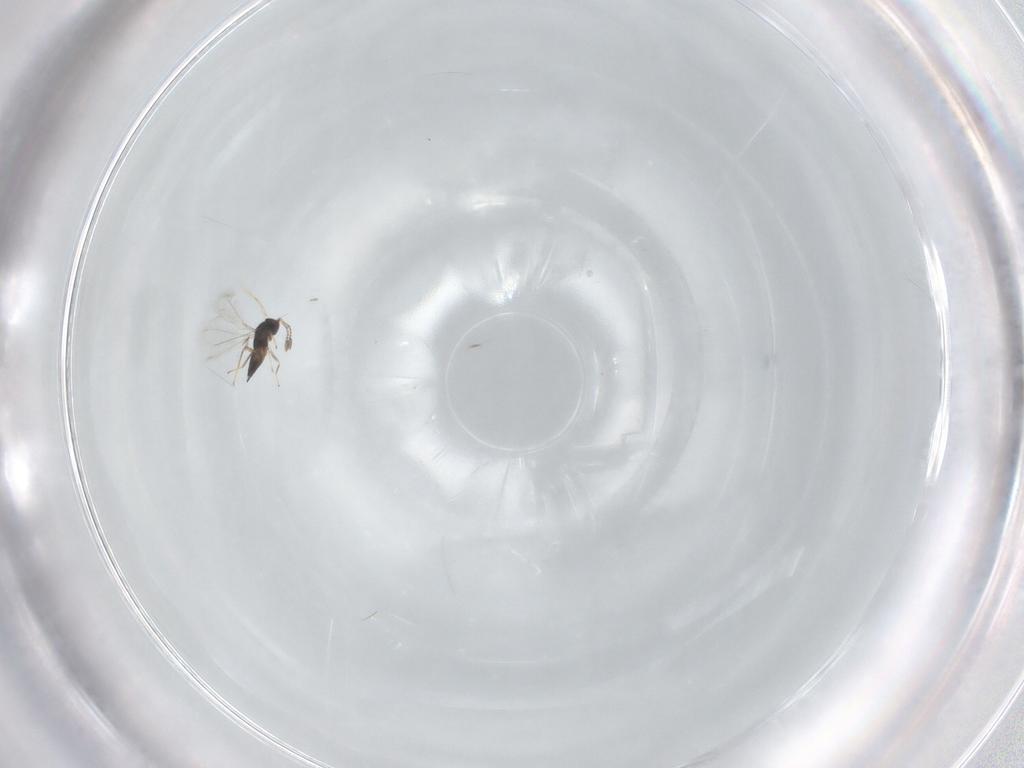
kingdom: Animalia
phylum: Arthropoda
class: Insecta
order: Hymenoptera
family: Mymaridae
